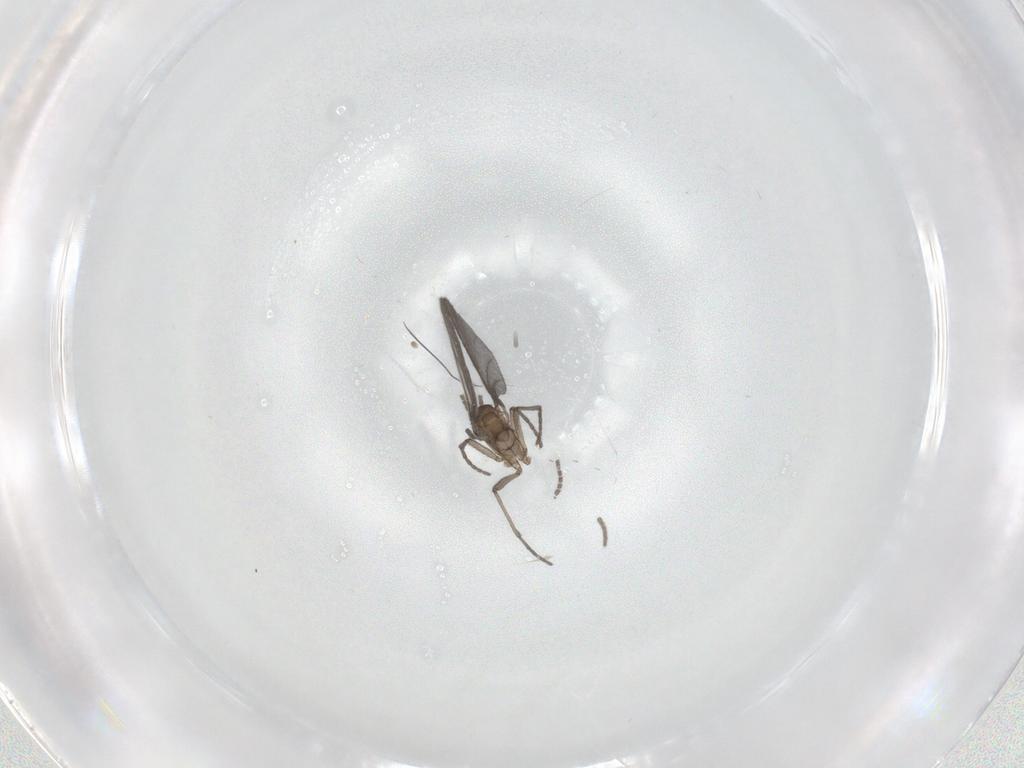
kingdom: Animalia
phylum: Arthropoda
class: Insecta
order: Diptera
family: Sciaridae
